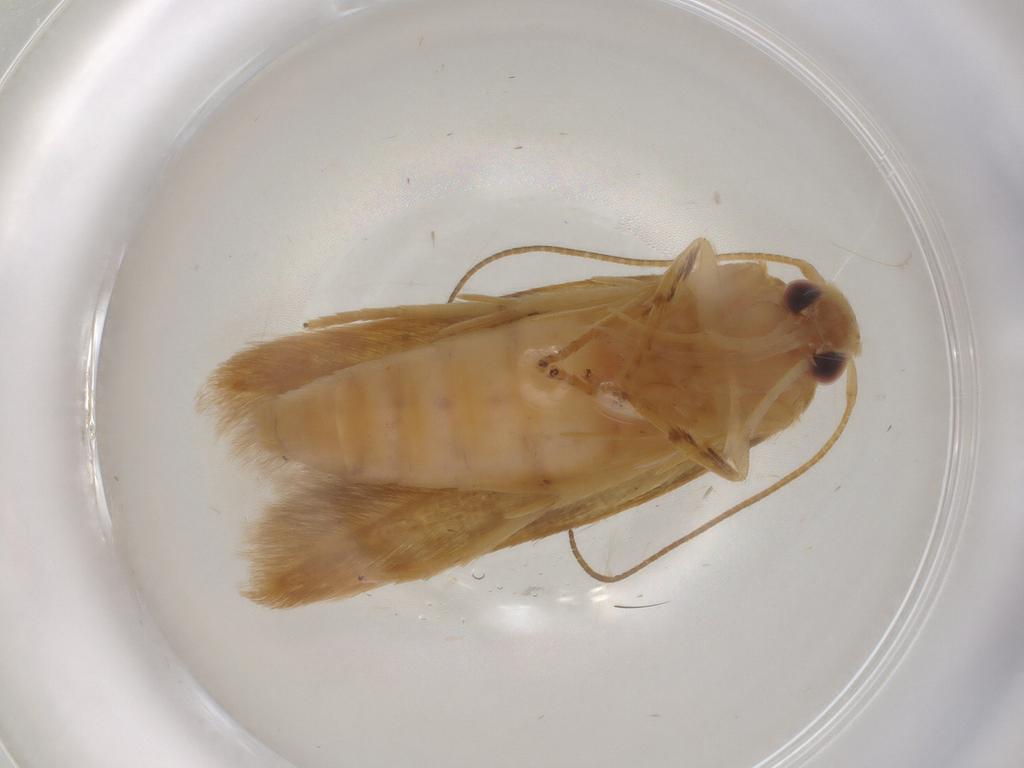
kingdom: Animalia
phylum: Arthropoda
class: Insecta
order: Lepidoptera
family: Stathmopodidae
